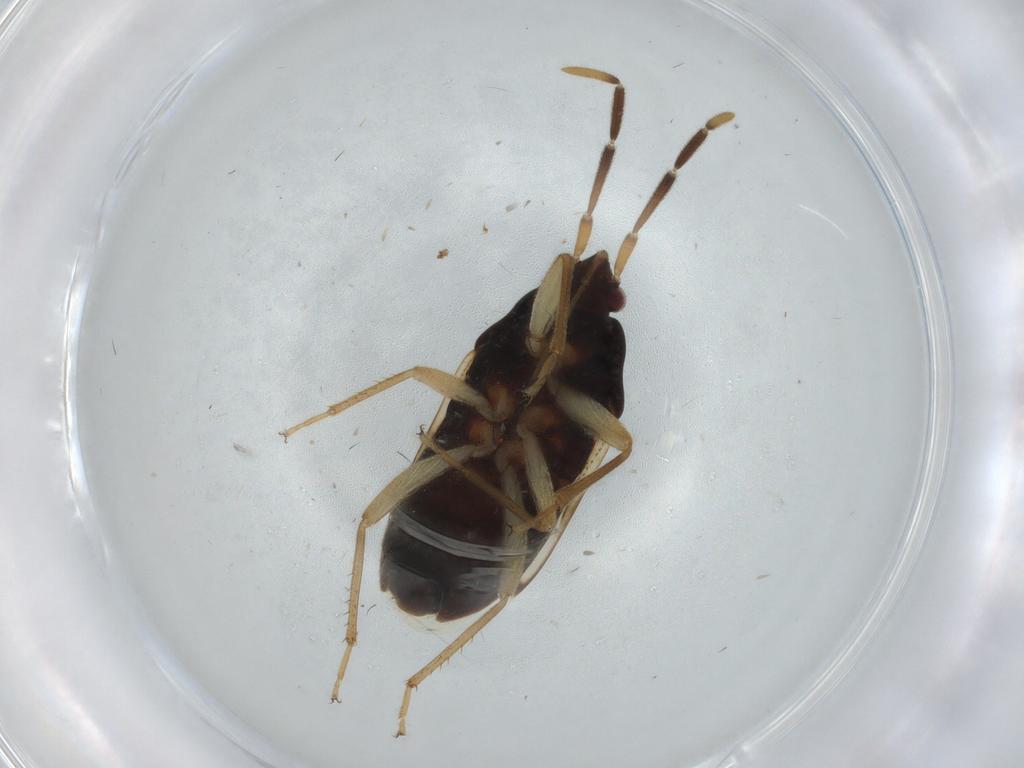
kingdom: Animalia
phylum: Arthropoda
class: Insecta
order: Hemiptera
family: Rhyparochromidae
